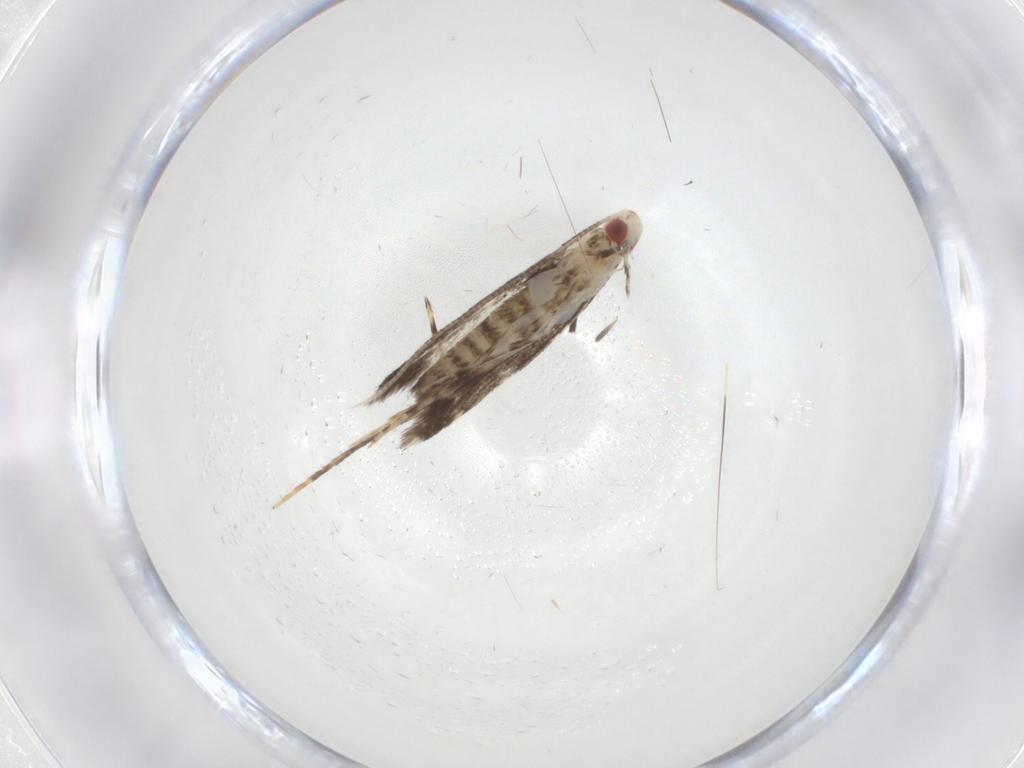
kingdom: Animalia
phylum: Arthropoda
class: Insecta
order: Lepidoptera
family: Gracillariidae
